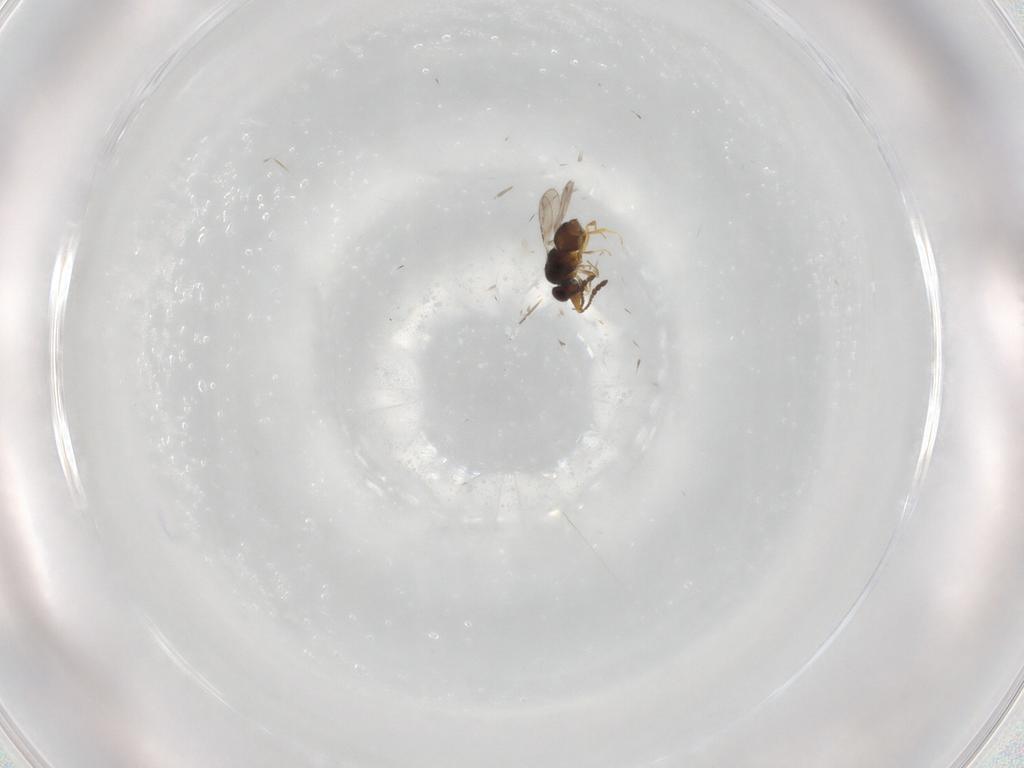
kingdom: Animalia
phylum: Arthropoda
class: Insecta
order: Hymenoptera
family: Ceraphronidae
